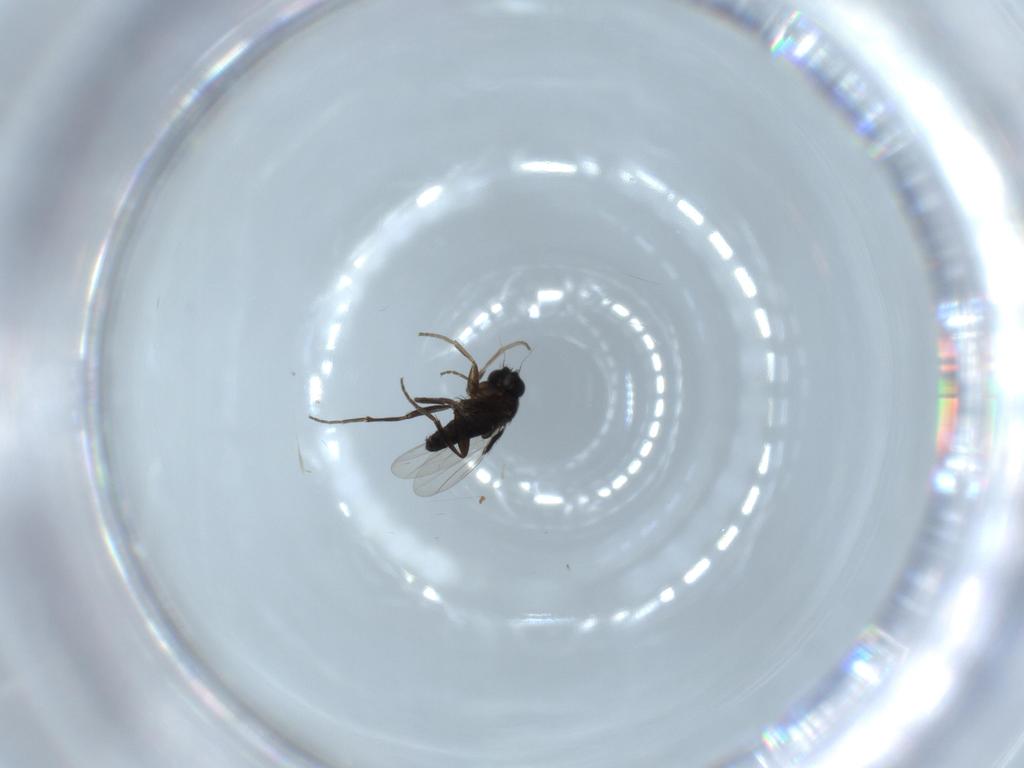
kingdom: Animalia
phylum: Arthropoda
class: Insecta
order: Diptera
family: Phoridae
